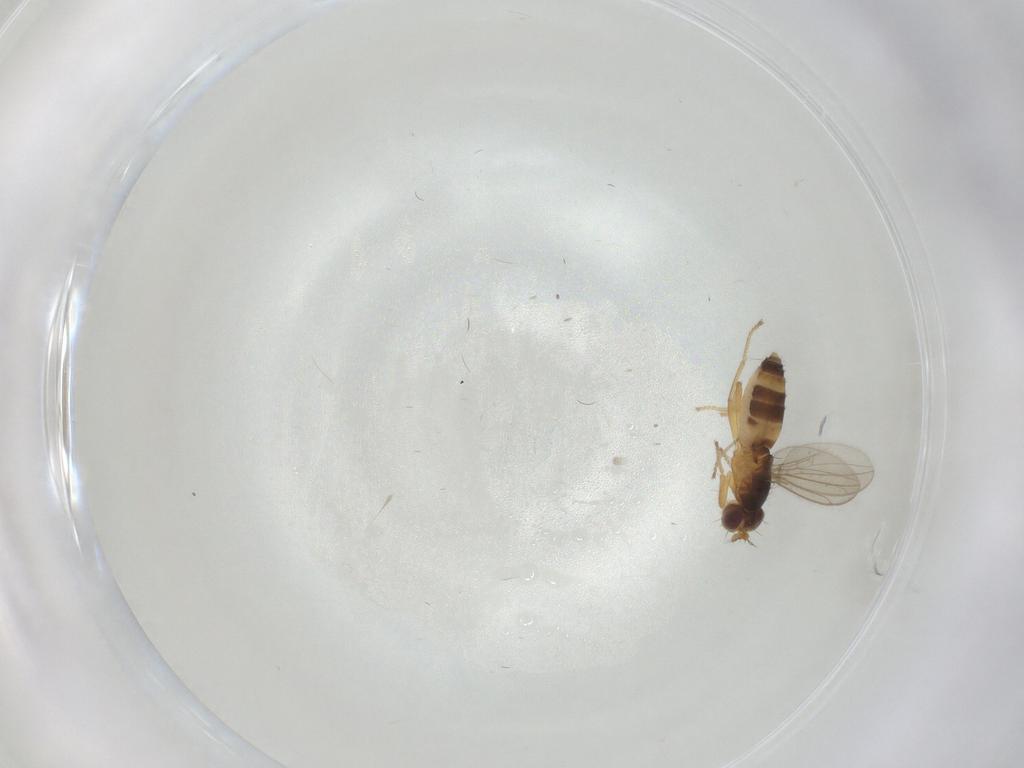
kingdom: Animalia
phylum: Arthropoda
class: Insecta
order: Diptera
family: Periscelididae
